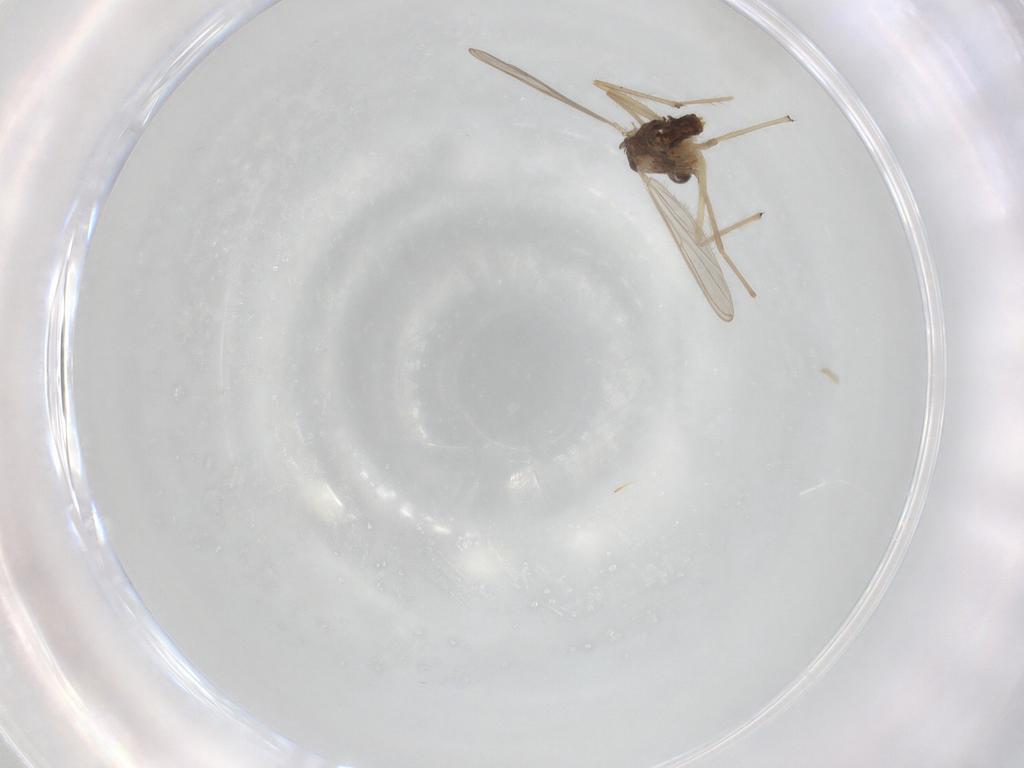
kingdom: Animalia
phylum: Arthropoda
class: Insecta
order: Diptera
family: Chironomidae
